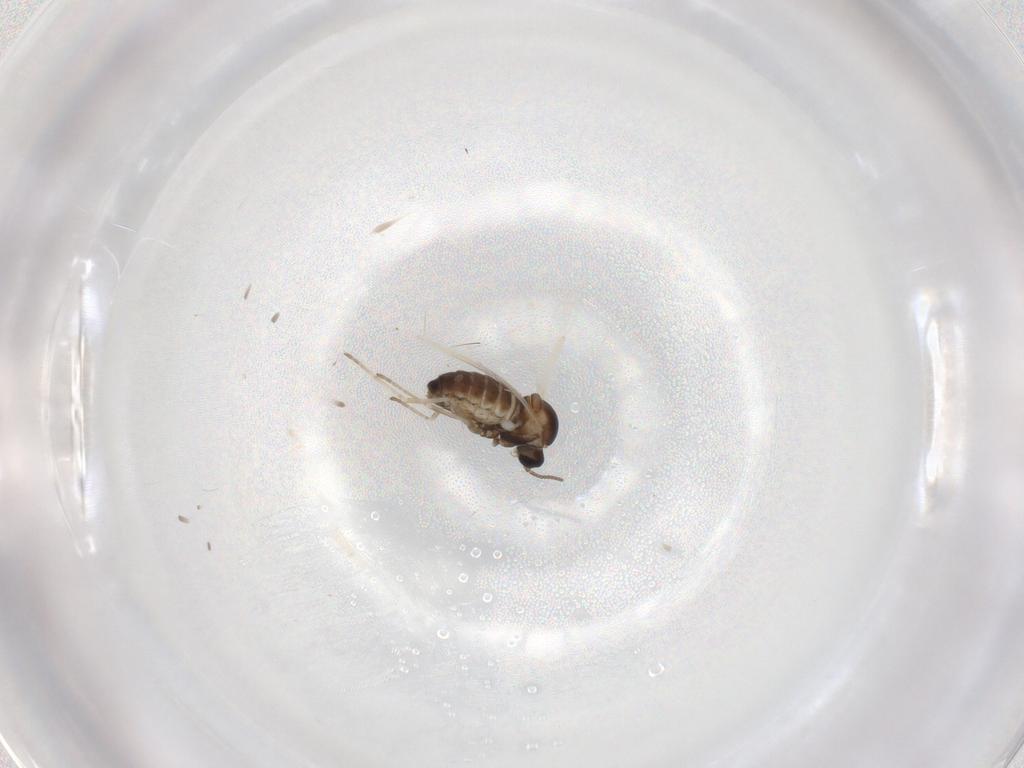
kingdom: Animalia
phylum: Arthropoda
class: Insecta
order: Diptera
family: Cecidomyiidae
